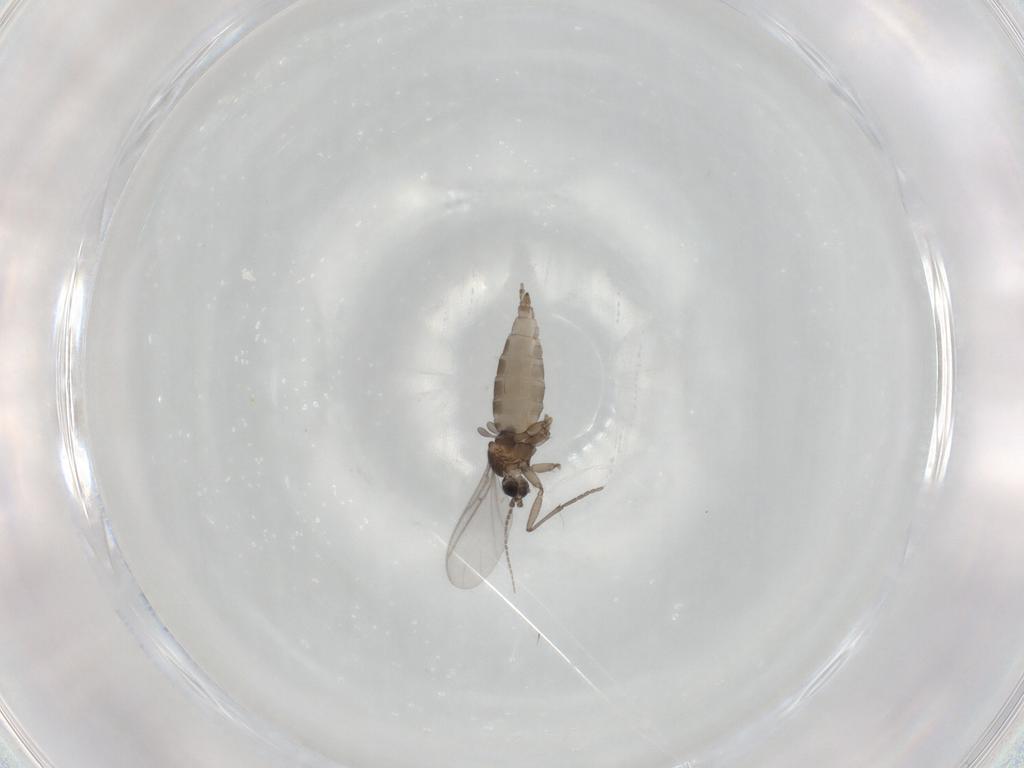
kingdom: Animalia
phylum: Arthropoda
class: Insecta
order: Diptera
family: Sciaridae
